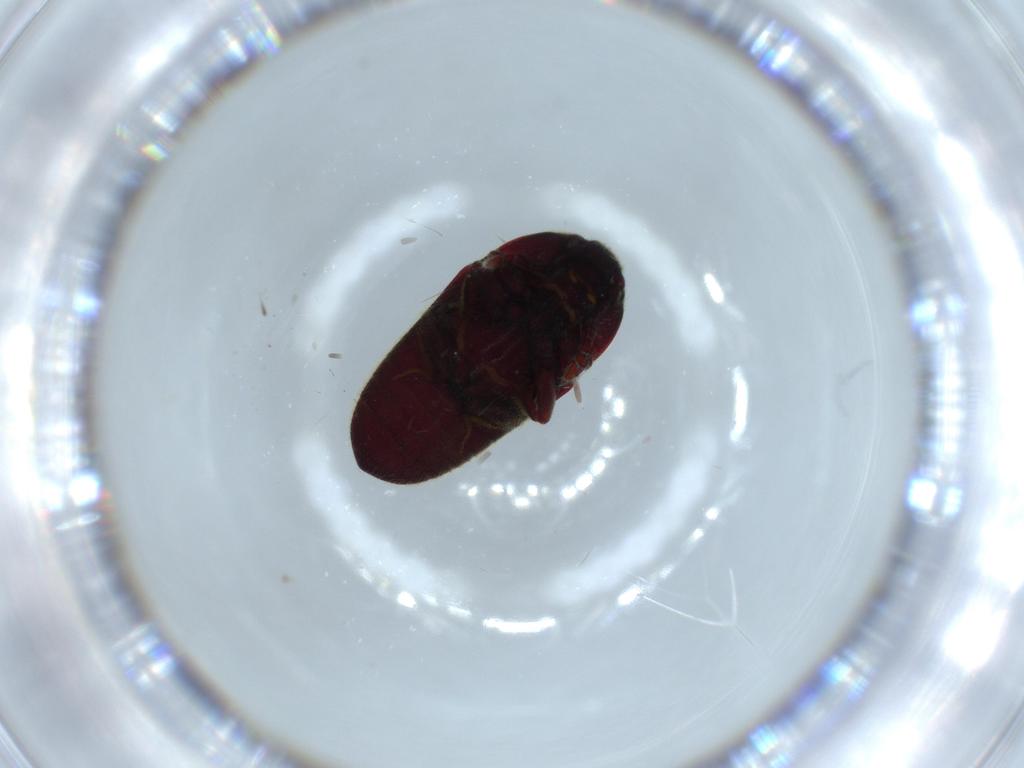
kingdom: Animalia
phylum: Arthropoda
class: Insecta
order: Coleoptera
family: Throscidae
